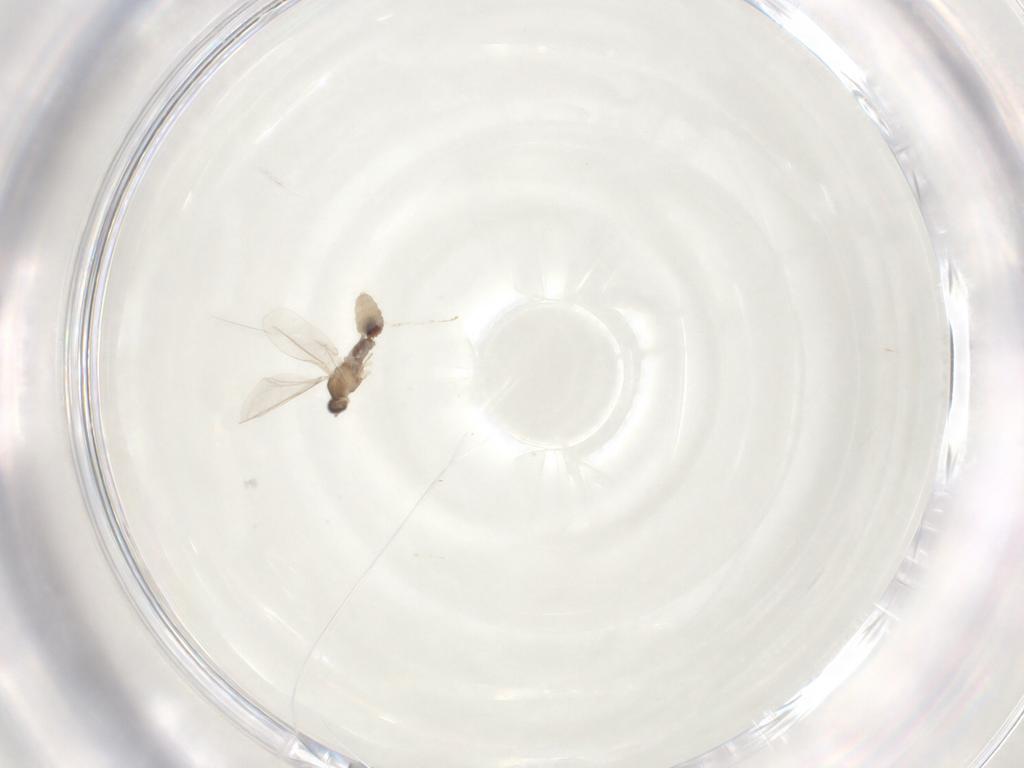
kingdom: Animalia
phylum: Arthropoda
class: Insecta
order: Diptera
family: Cecidomyiidae
